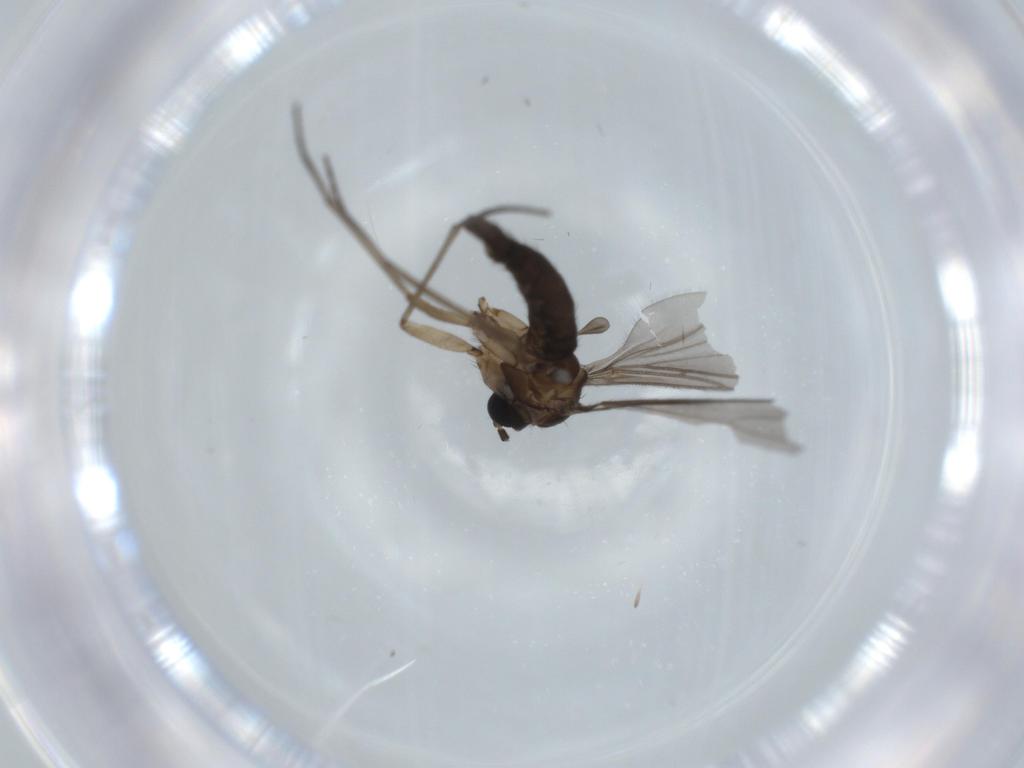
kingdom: Animalia
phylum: Arthropoda
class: Insecta
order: Diptera
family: Sciaridae
